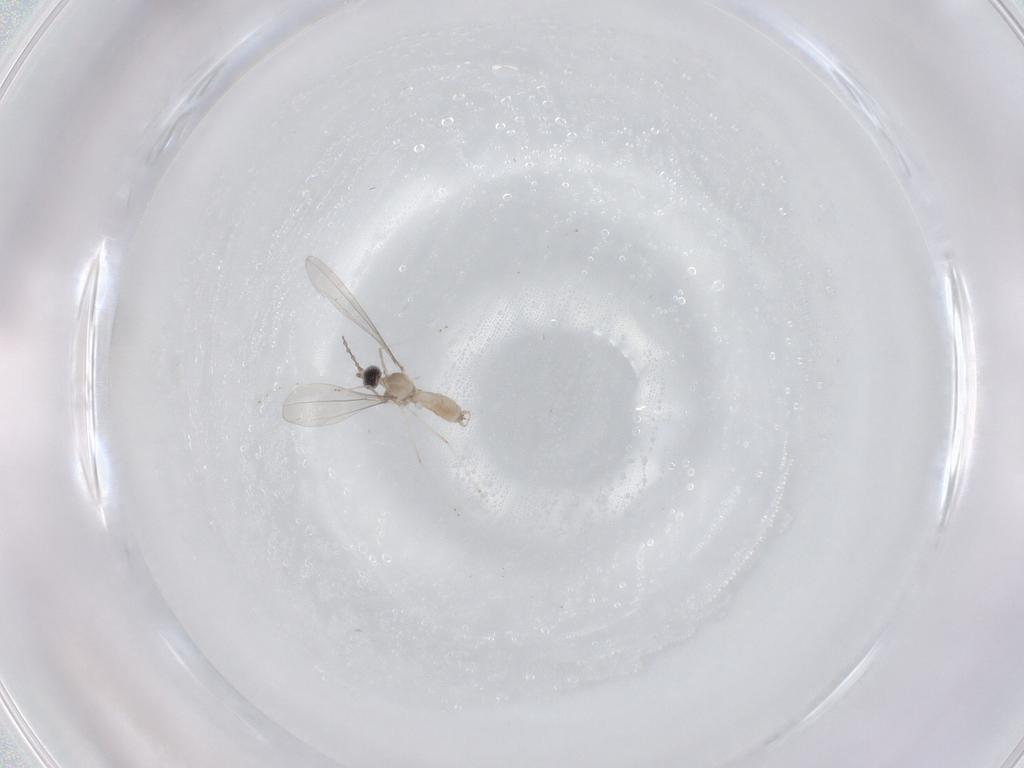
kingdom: Animalia
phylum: Arthropoda
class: Insecta
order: Diptera
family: Cecidomyiidae
